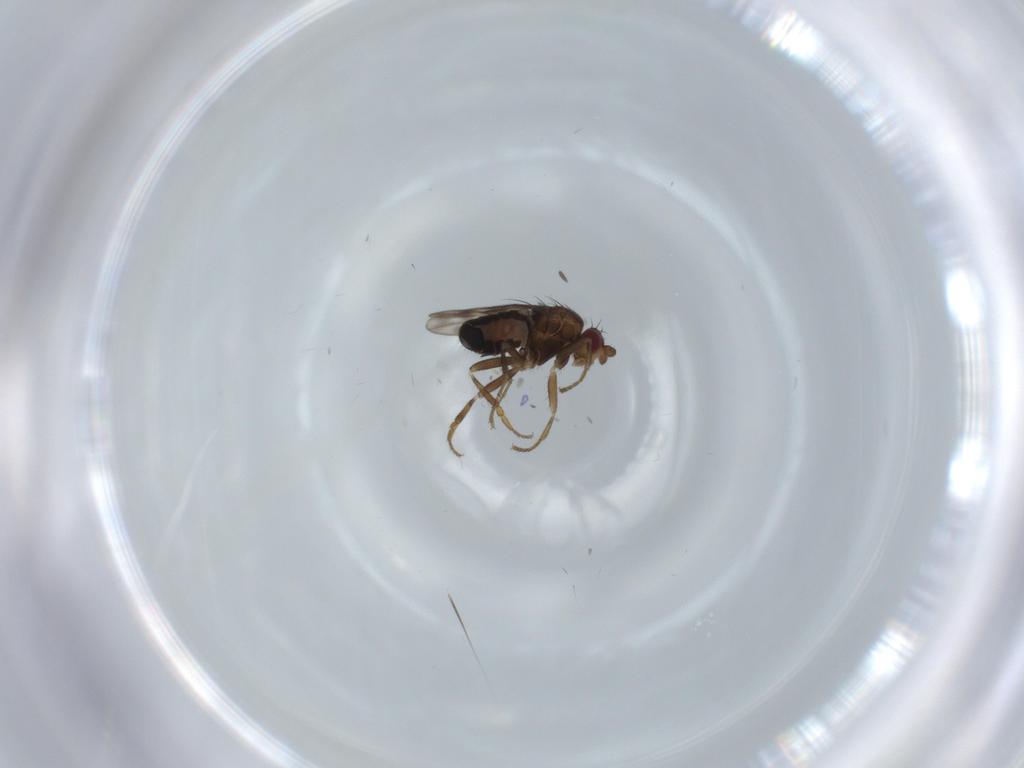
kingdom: Animalia
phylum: Arthropoda
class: Insecta
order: Diptera
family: Sphaeroceridae
